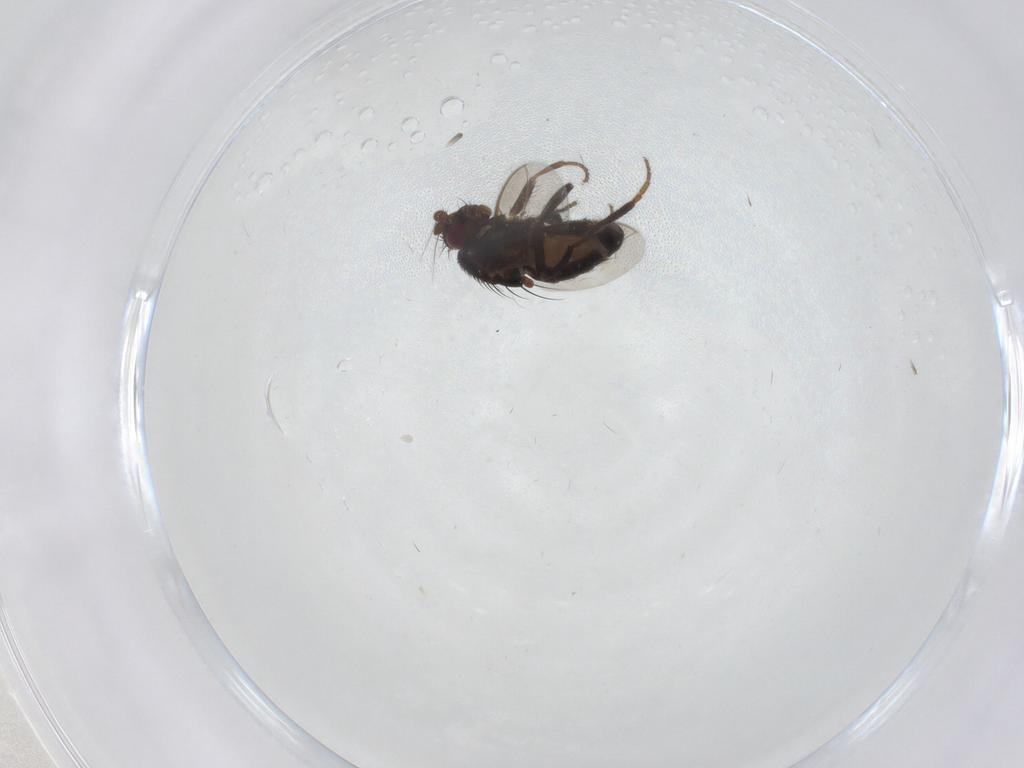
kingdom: Animalia
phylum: Arthropoda
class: Insecta
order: Diptera
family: Sphaeroceridae
